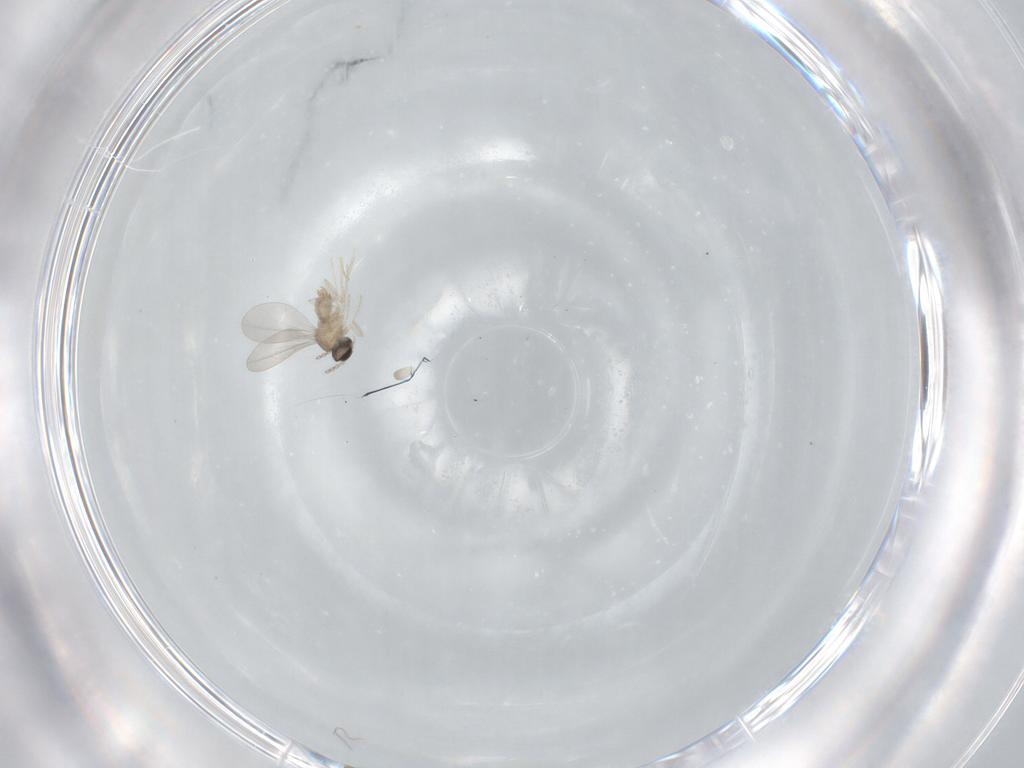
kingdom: Animalia
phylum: Arthropoda
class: Insecta
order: Diptera
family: Cecidomyiidae
